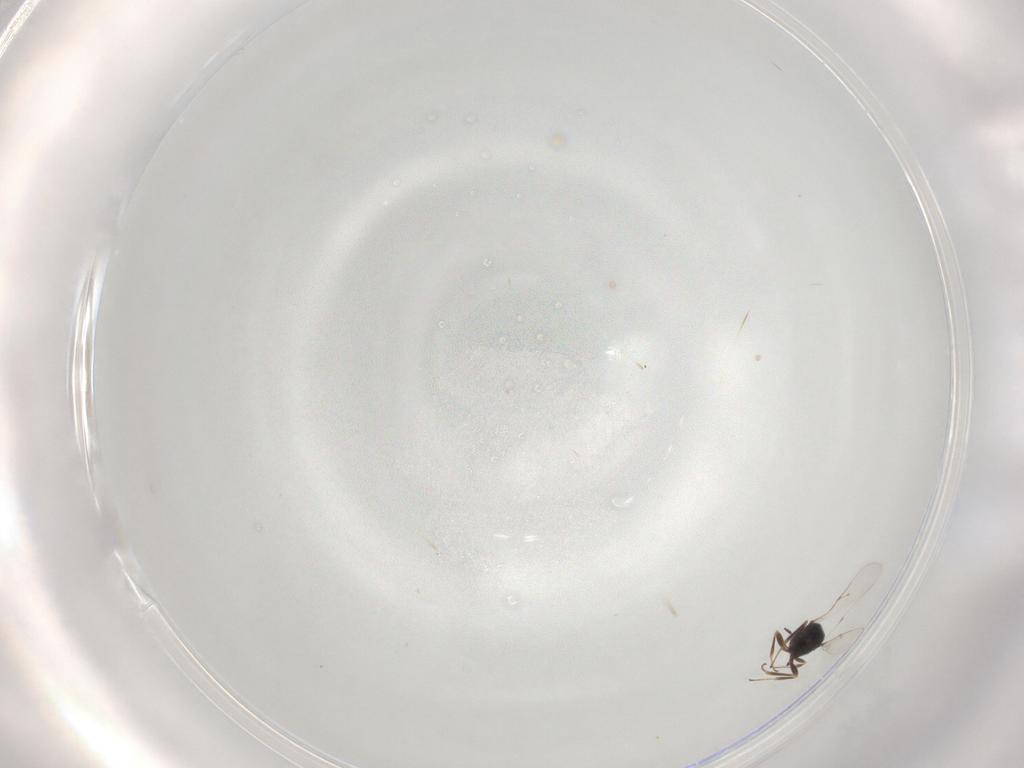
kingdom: Animalia
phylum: Arthropoda
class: Insecta
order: Hymenoptera
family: Scelionidae
